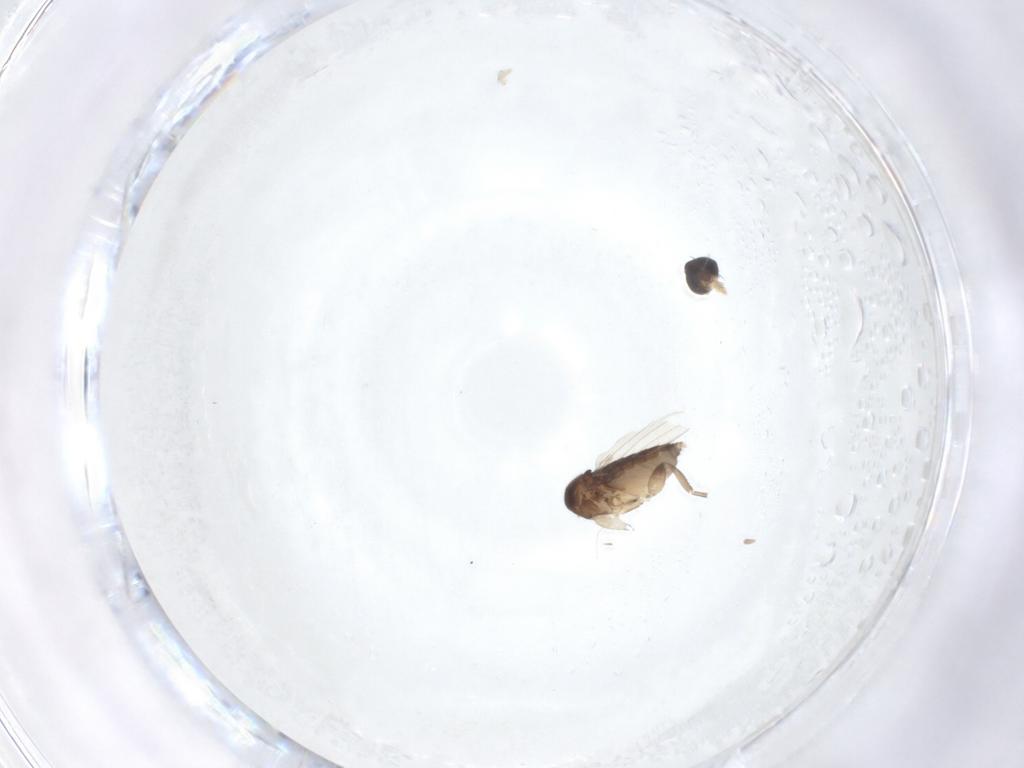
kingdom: Animalia
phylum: Arthropoda
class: Insecta
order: Diptera
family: Phoridae
